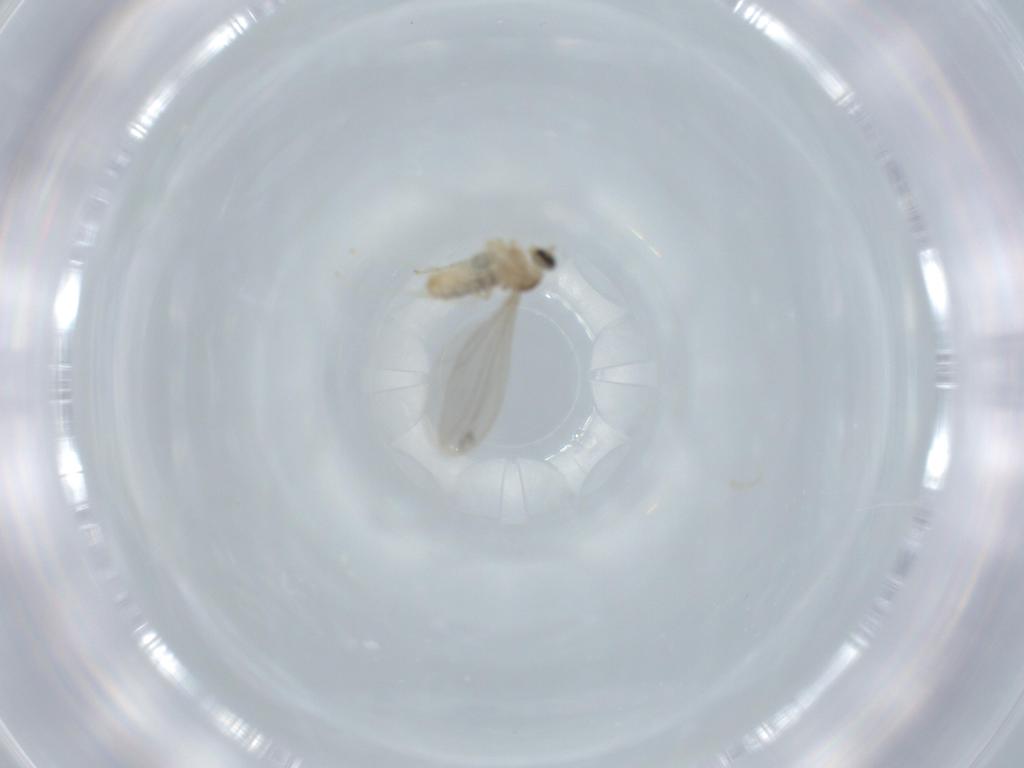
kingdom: Animalia
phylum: Arthropoda
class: Insecta
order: Diptera
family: Cecidomyiidae
